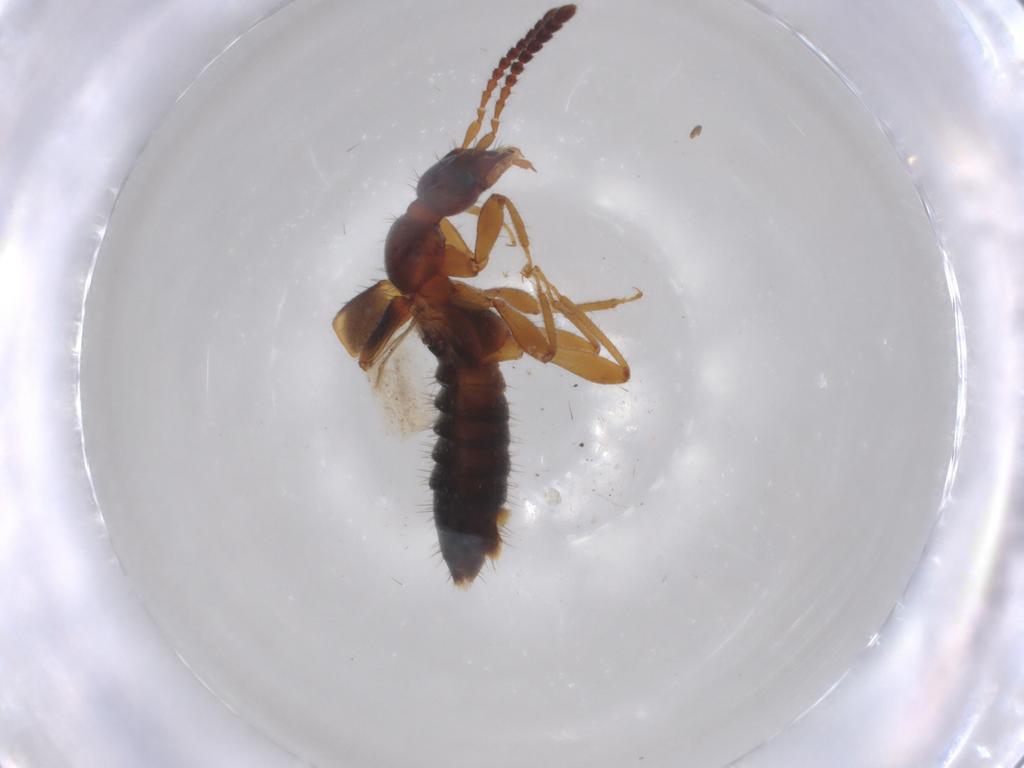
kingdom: Animalia
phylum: Arthropoda
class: Insecta
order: Coleoptera
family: Staphylinidae
